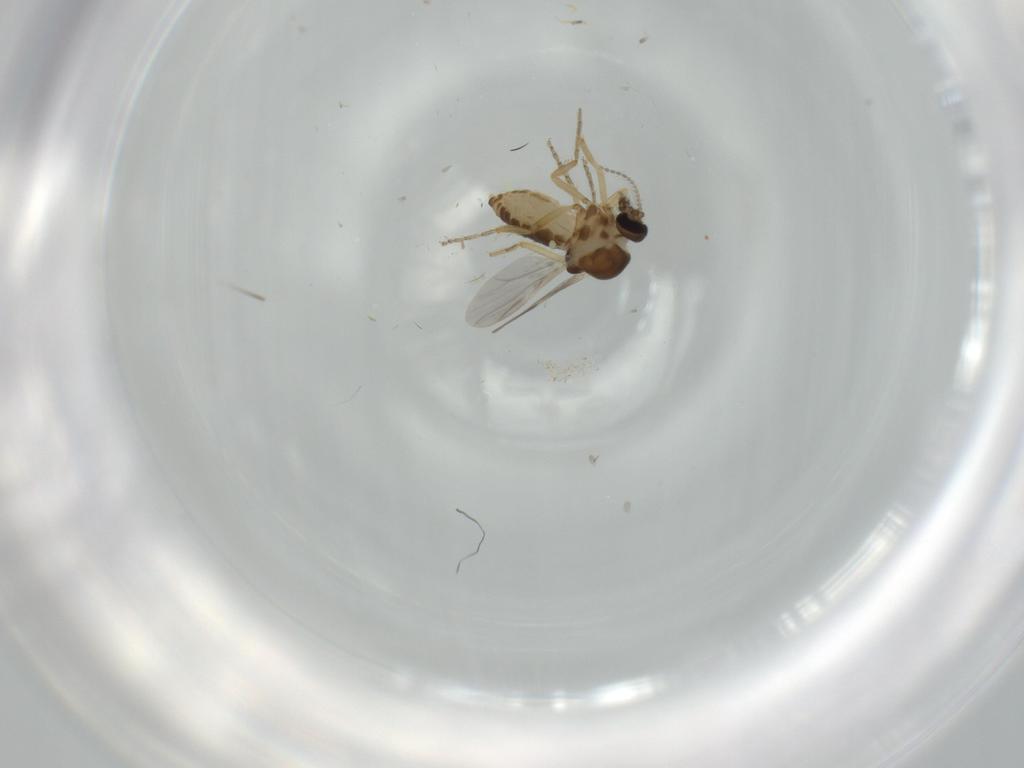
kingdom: Animalia
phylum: Arthropoda
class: Insecta
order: Diptera
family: Ceratopogonidae
